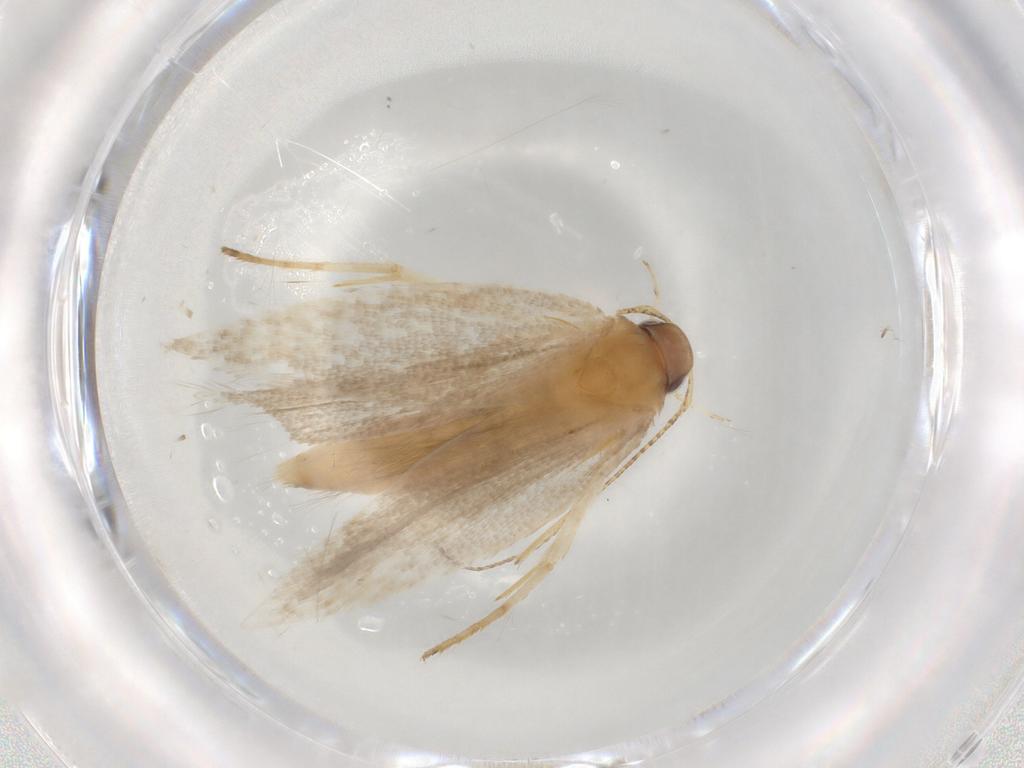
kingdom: Animalia
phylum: Arthropoda
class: Insecta
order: Lepidoptera
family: Gelechiidae
